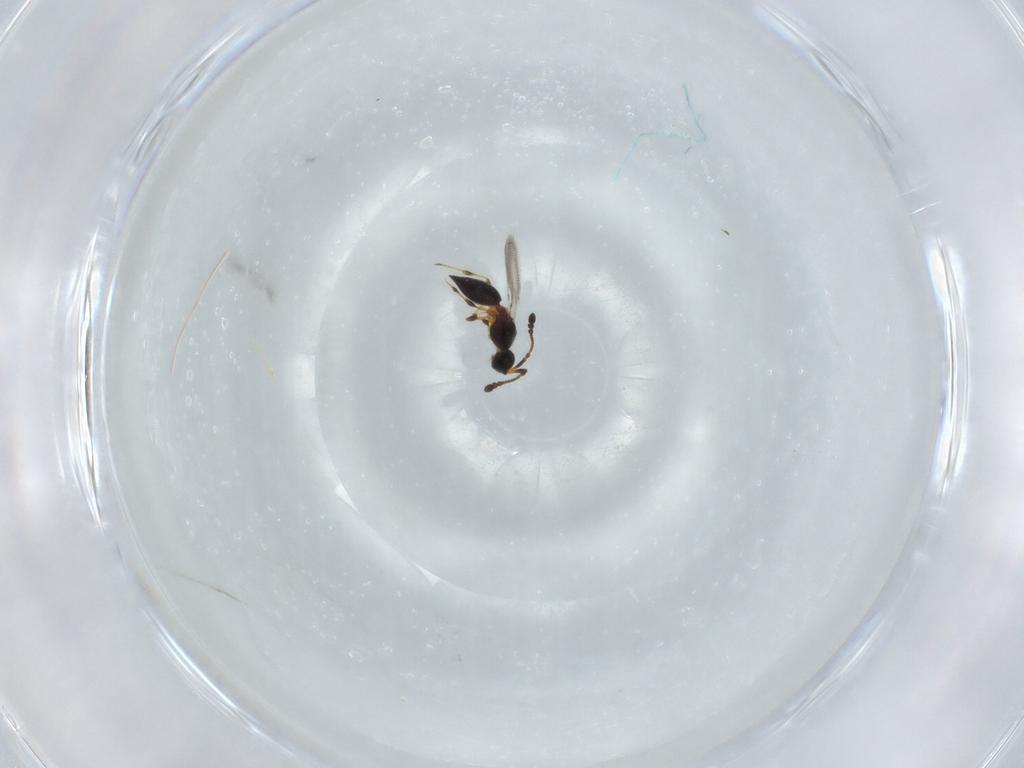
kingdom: Animalia
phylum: Arthropoda
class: Insecta
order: Hymenoptera
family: Diapriidae
